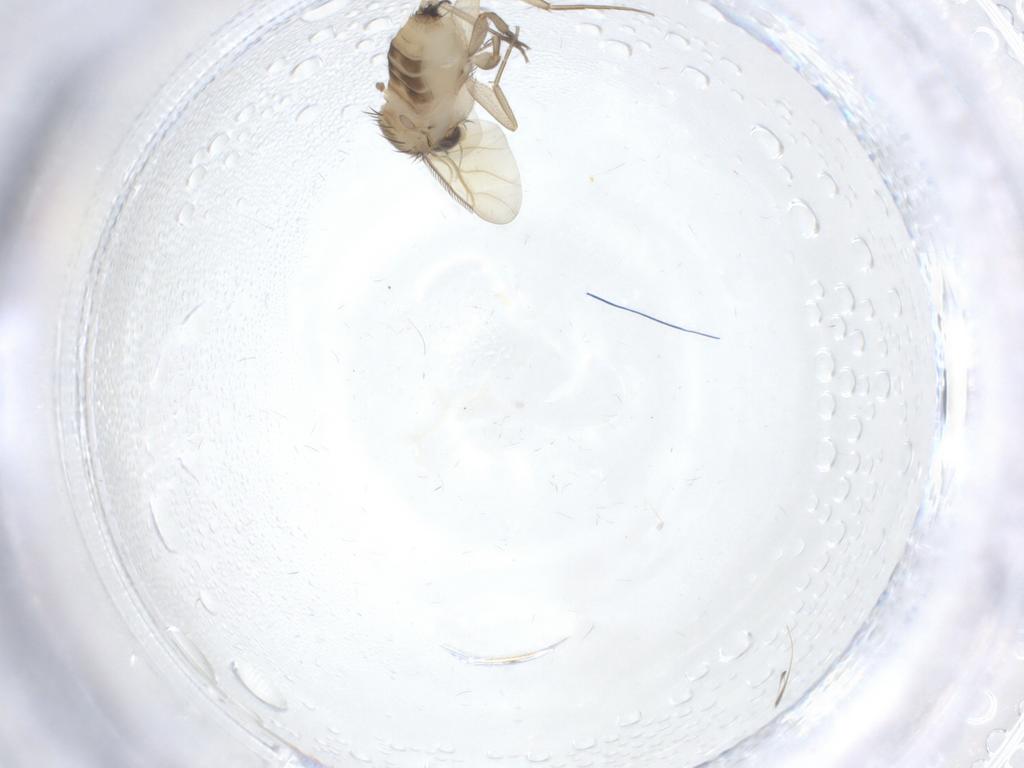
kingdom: Animalia
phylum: Arthropoda
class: Insecta
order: Diptera
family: Phoridae
